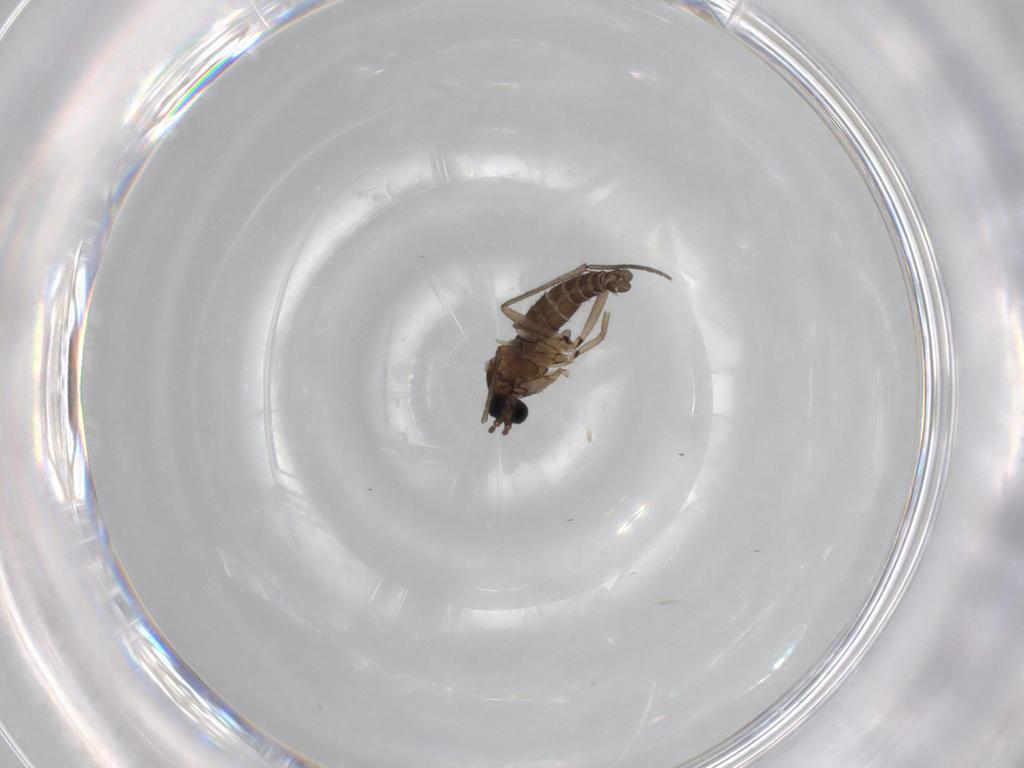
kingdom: Animalia
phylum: Arthropoda
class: Insecta
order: Diptera
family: Sciaridae
